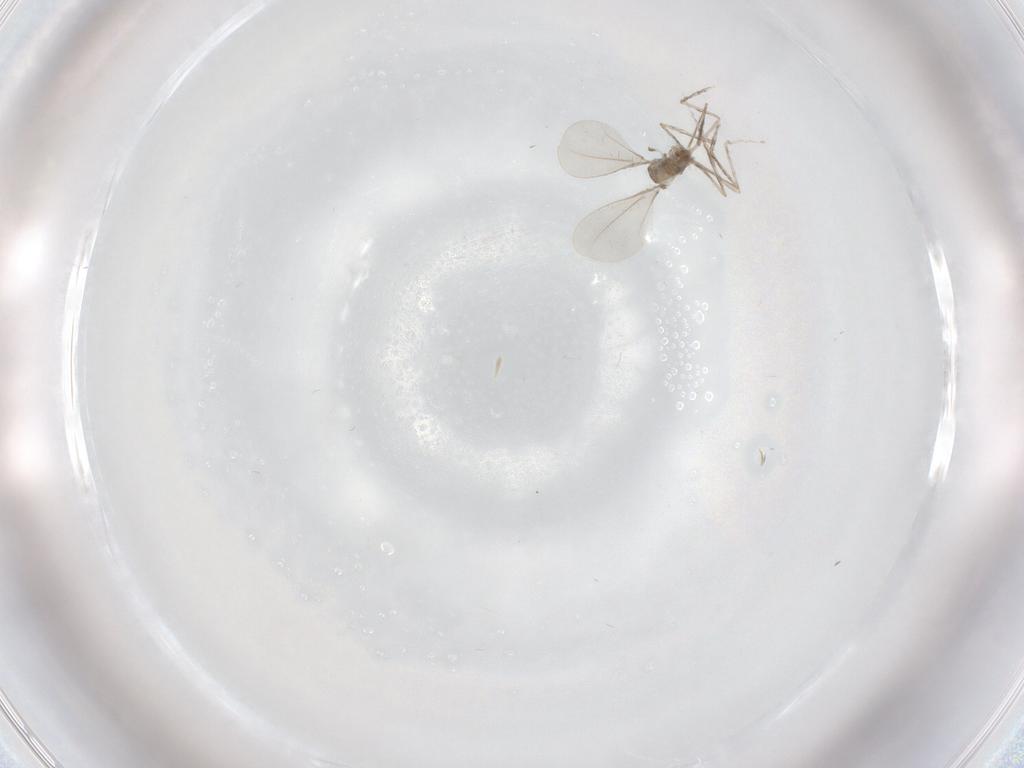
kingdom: Animalia
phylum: Arthropoda
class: Insecta
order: Diptera
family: Cecidomyiidae
